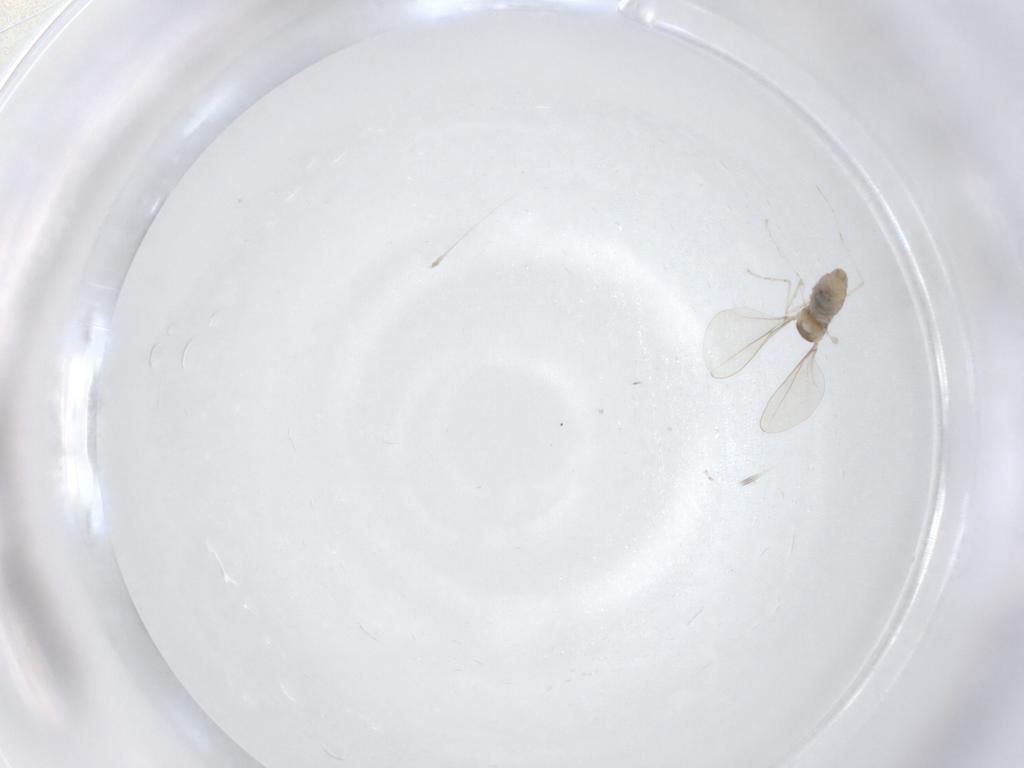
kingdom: Animalia
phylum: Arthropoda
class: Insecta
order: Diptera
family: Cecidomyiidae
